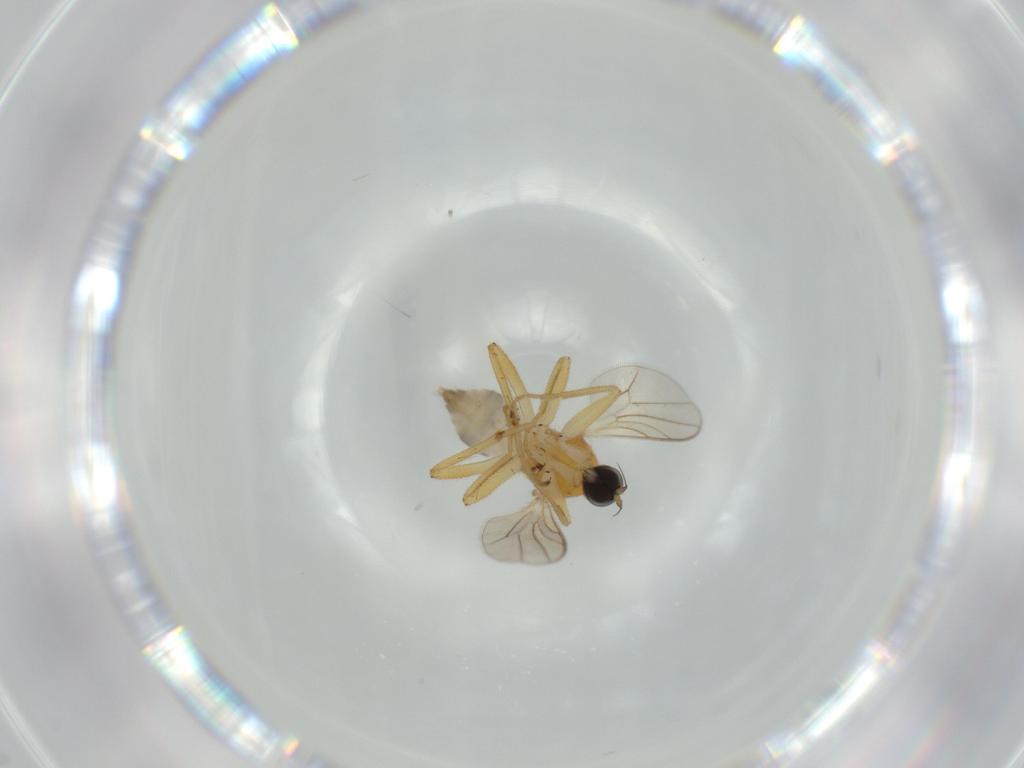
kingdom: Animalia
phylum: Arthropoda
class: Insecta
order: Diptera
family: Hybotidae
